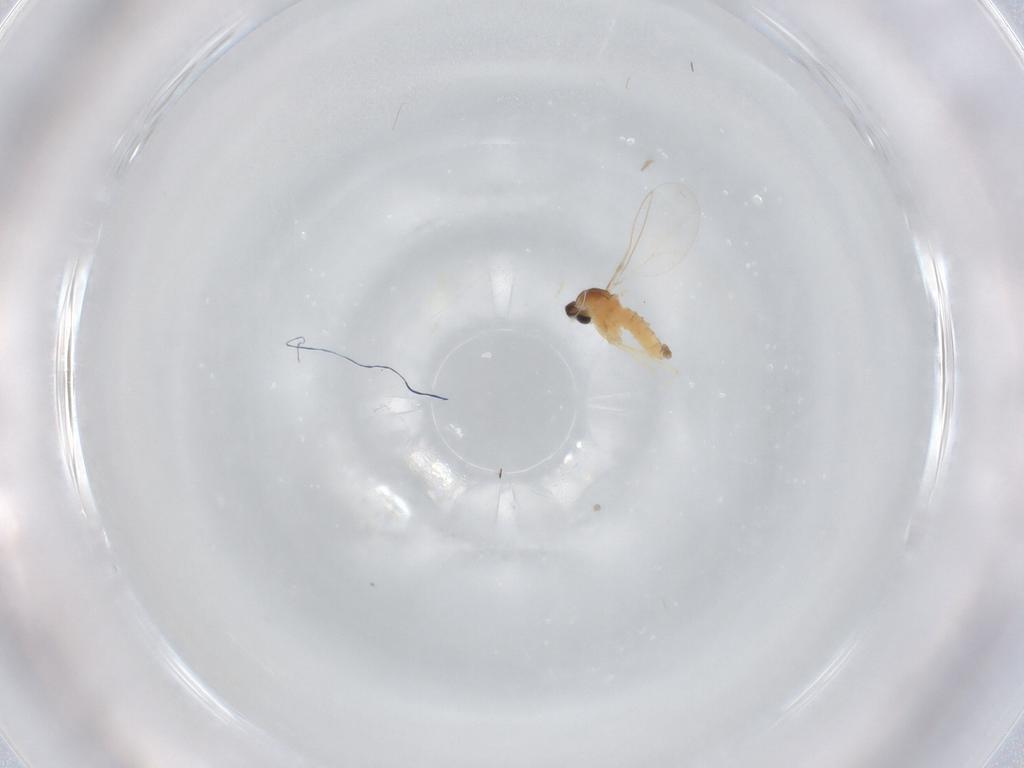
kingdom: Animalia
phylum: Arthropoda
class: Insecta
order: Diptera
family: Cecidomyiidae
